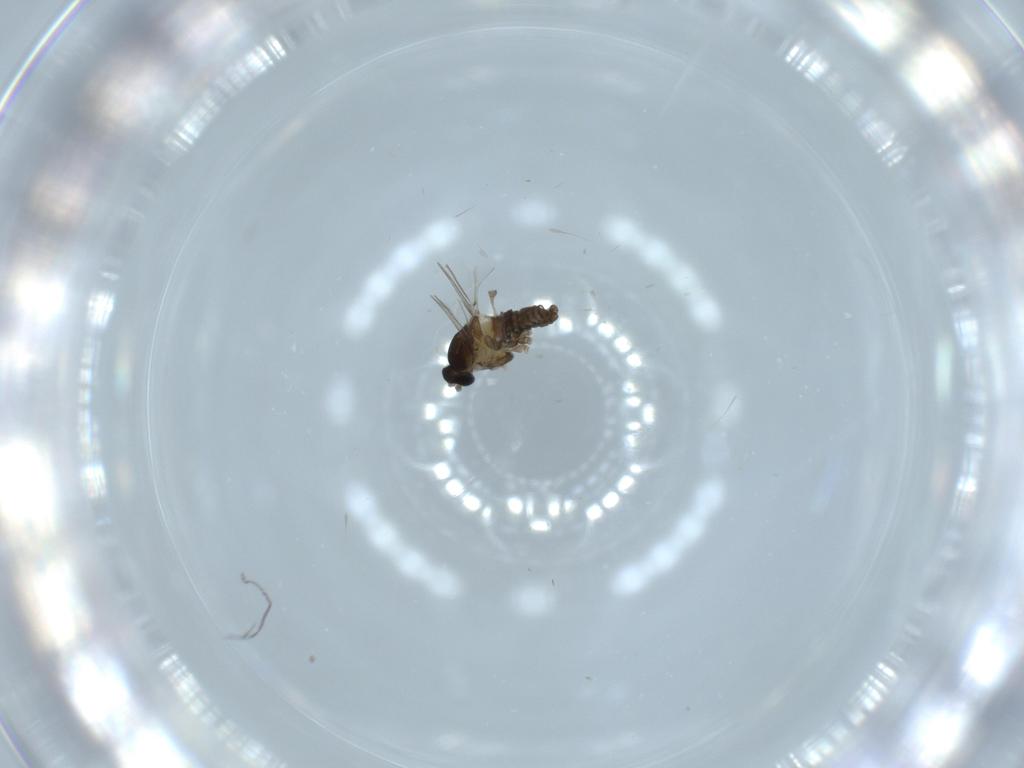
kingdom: Animalia
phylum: Arthropoda
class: Insecta
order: Diptera
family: Cecidomyiidae
